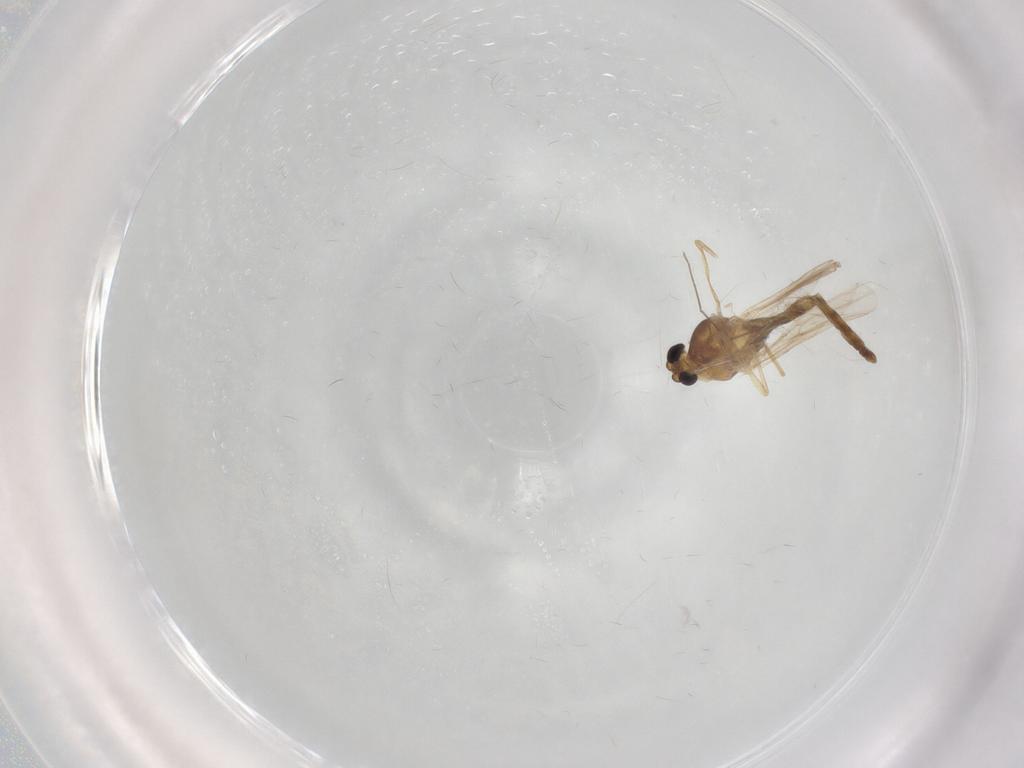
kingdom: Animalia
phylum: Arthropoda
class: Insecta
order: Diptera
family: Chironomidae
